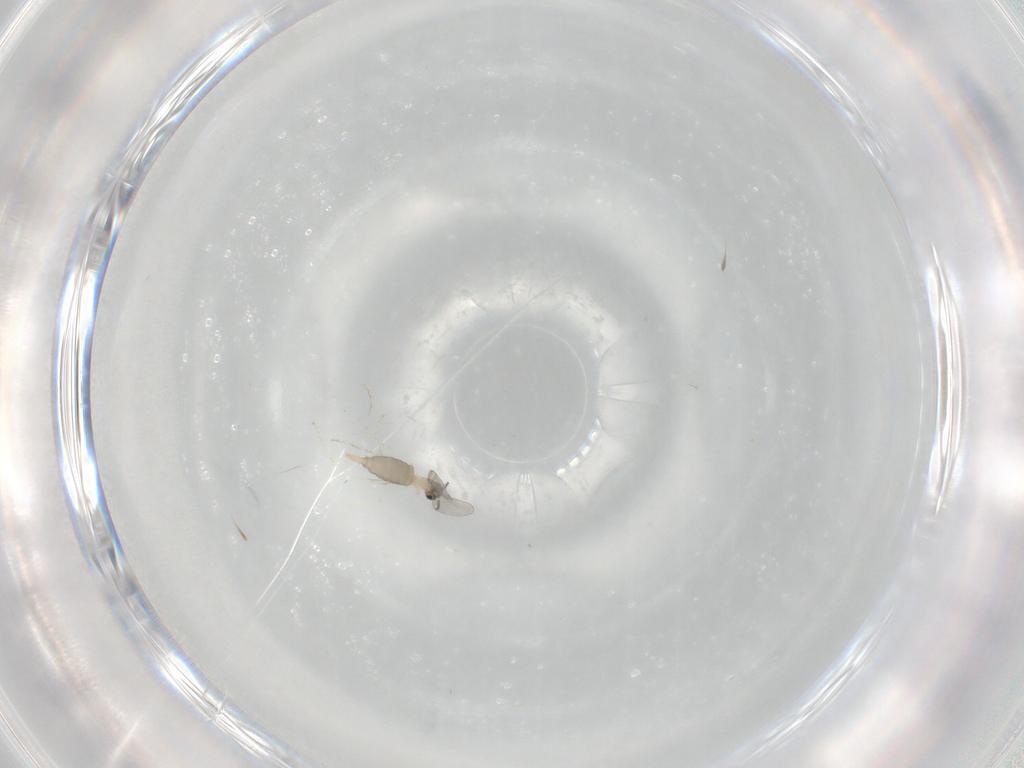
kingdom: Animalia
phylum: Arthropoda
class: Insecta
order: Diptera
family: Cecidomyiidae
